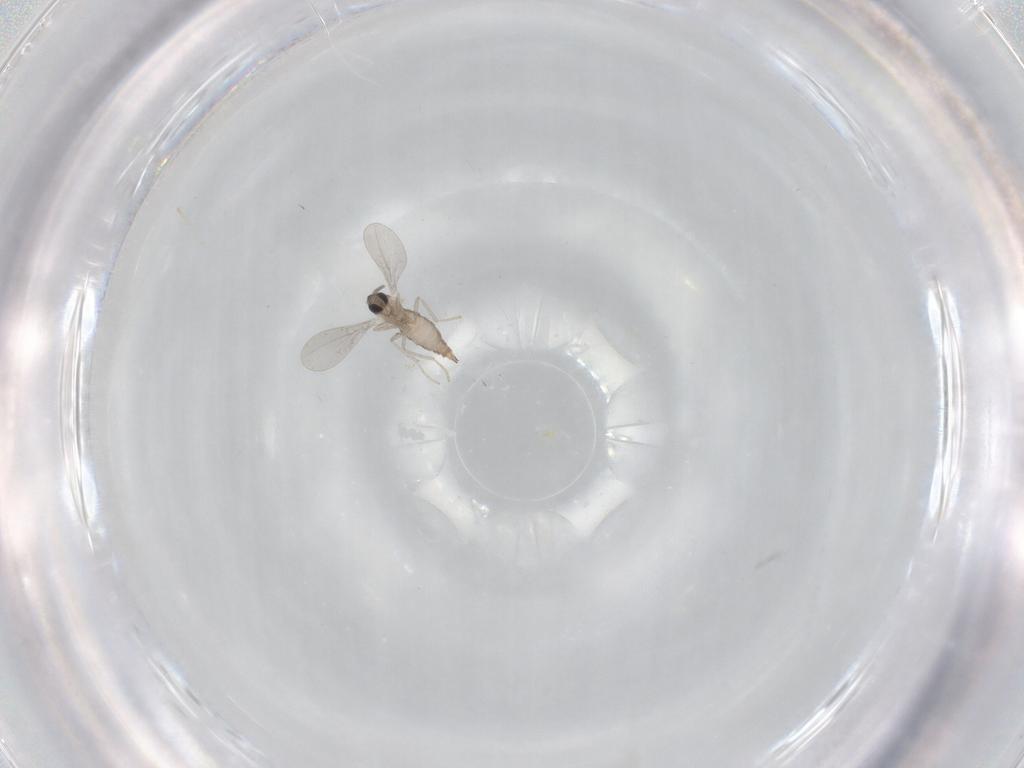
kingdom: Animalia
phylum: Arthropoda
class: Insecta
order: Diptera
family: Cecidomyiidae
